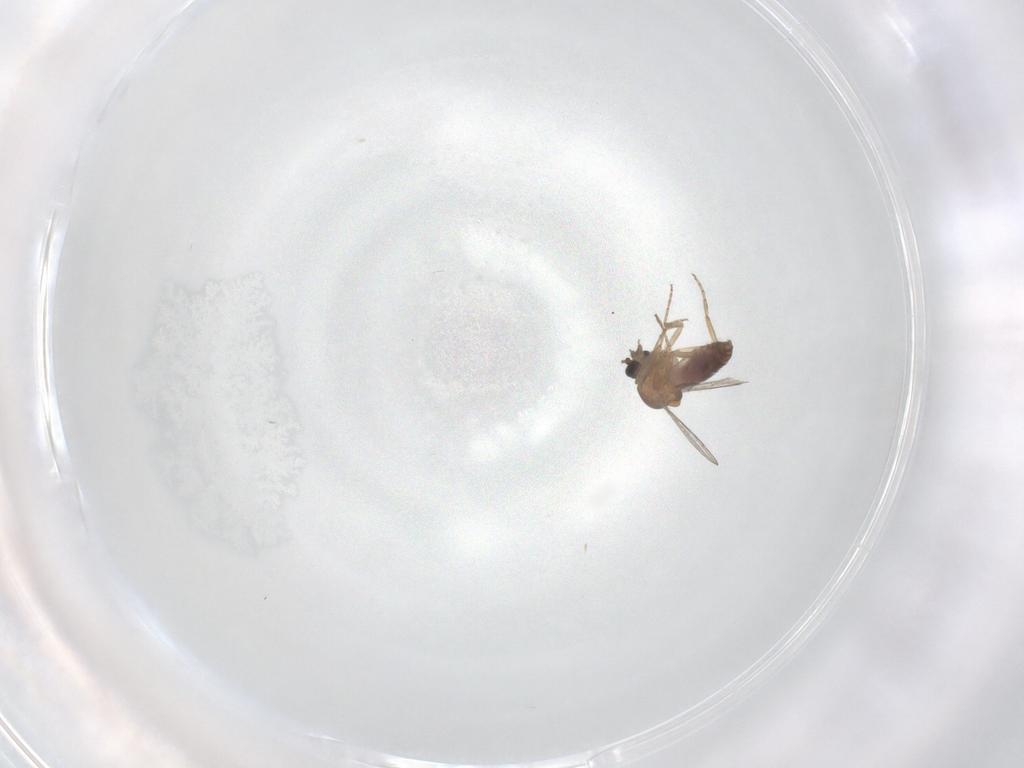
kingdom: Animalia
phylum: Arthropoda
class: Insecta
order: Diptera
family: Ceratopogonidae
